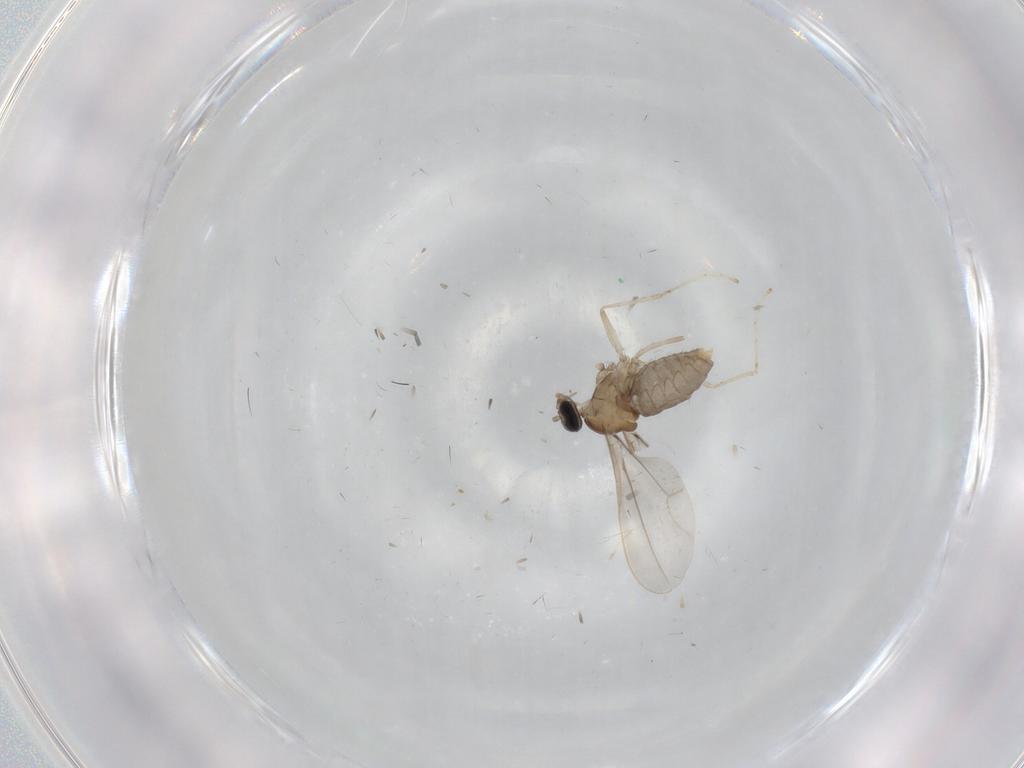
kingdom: Animalia
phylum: Arthropoda
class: Insecta
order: Diptera
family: Cecidomyiidae
